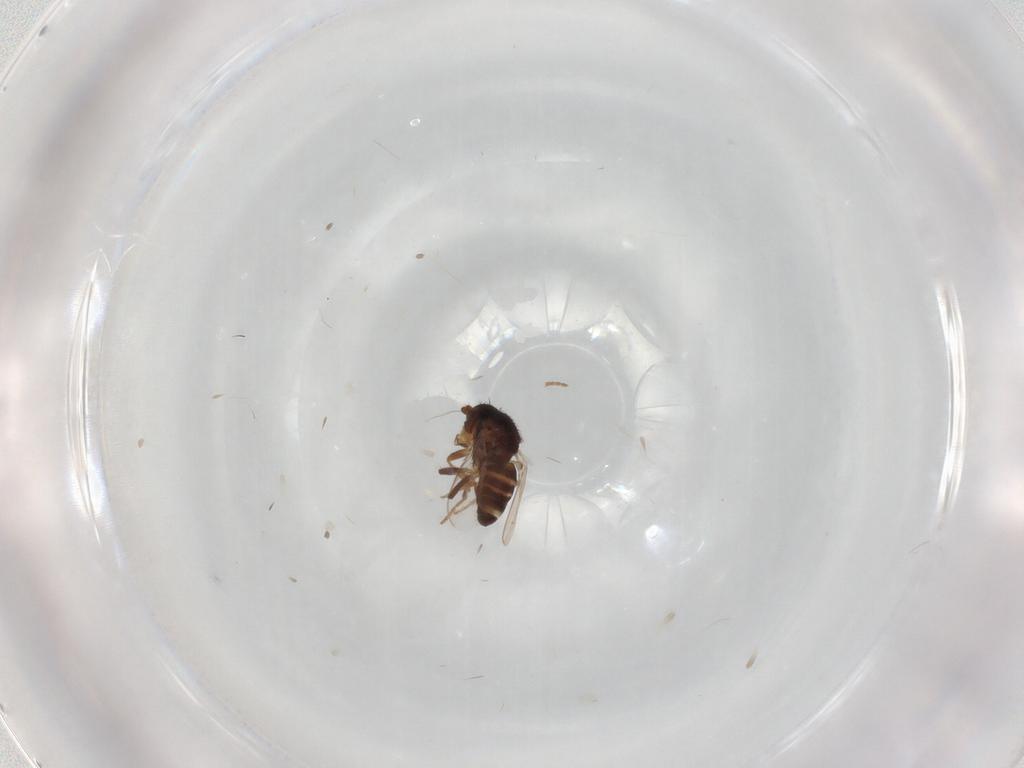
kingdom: Animalia
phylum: Arthropoda
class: Insecta
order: Diptera
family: Sphaeroceridae
